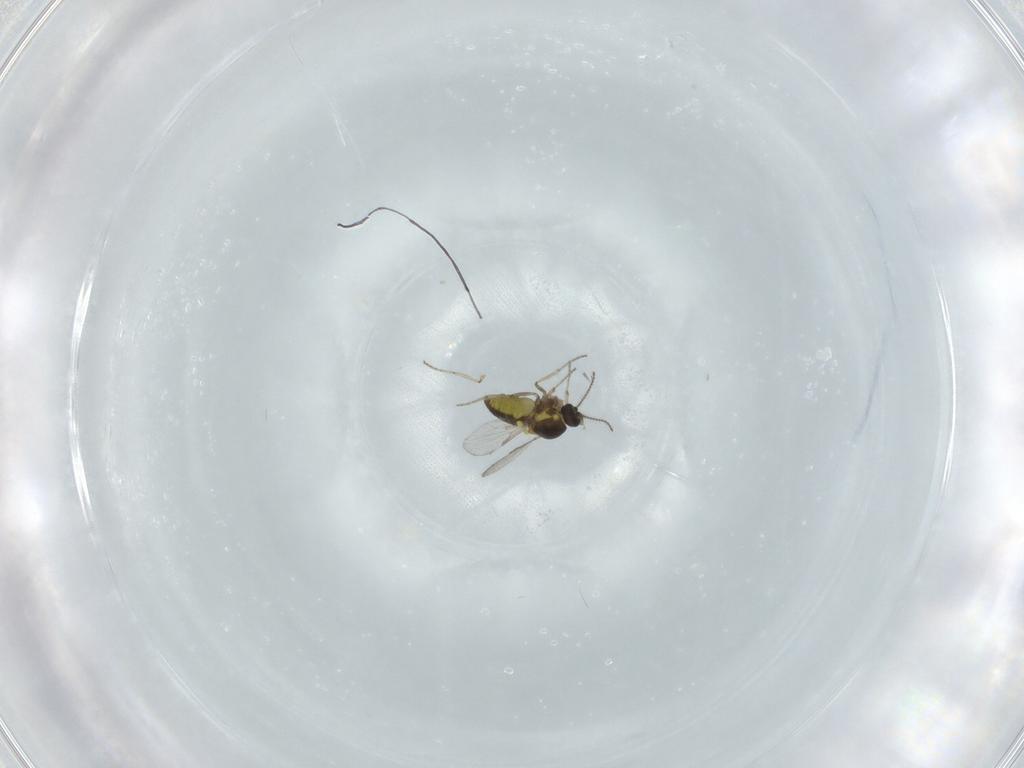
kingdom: Animalia
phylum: Arthropoda
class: Insecta
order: Diptera
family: Ceratopogonidae
